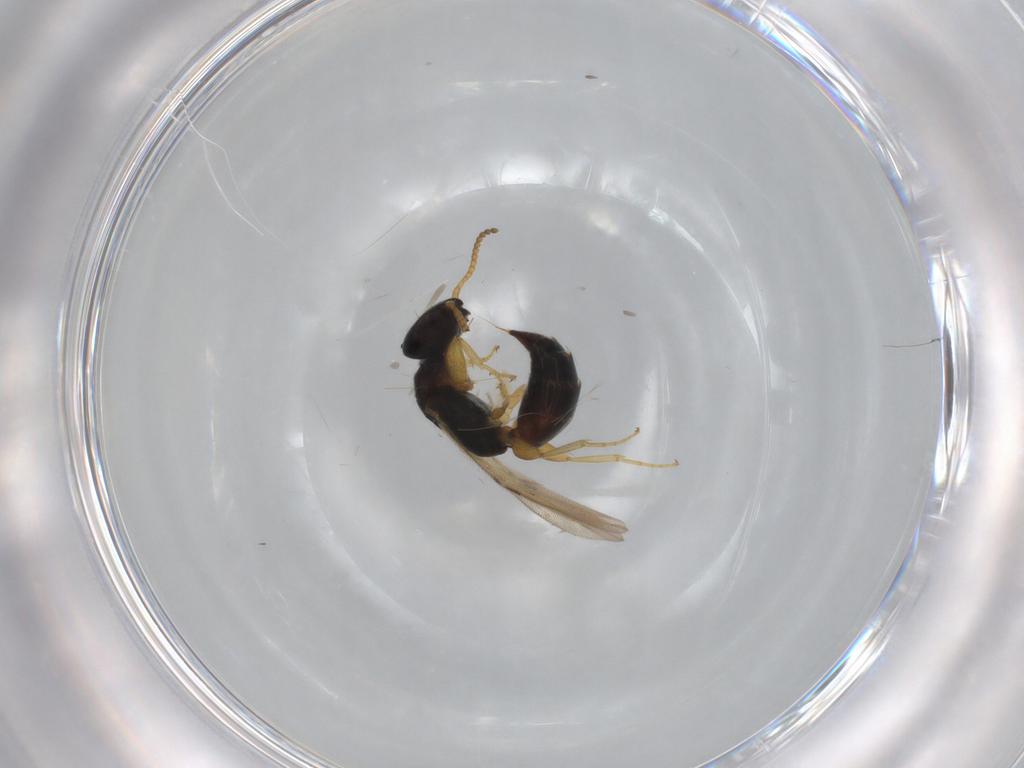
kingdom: Animalia
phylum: Arthropoda
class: Insecta
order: Hymenoptera
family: Bethylidae
